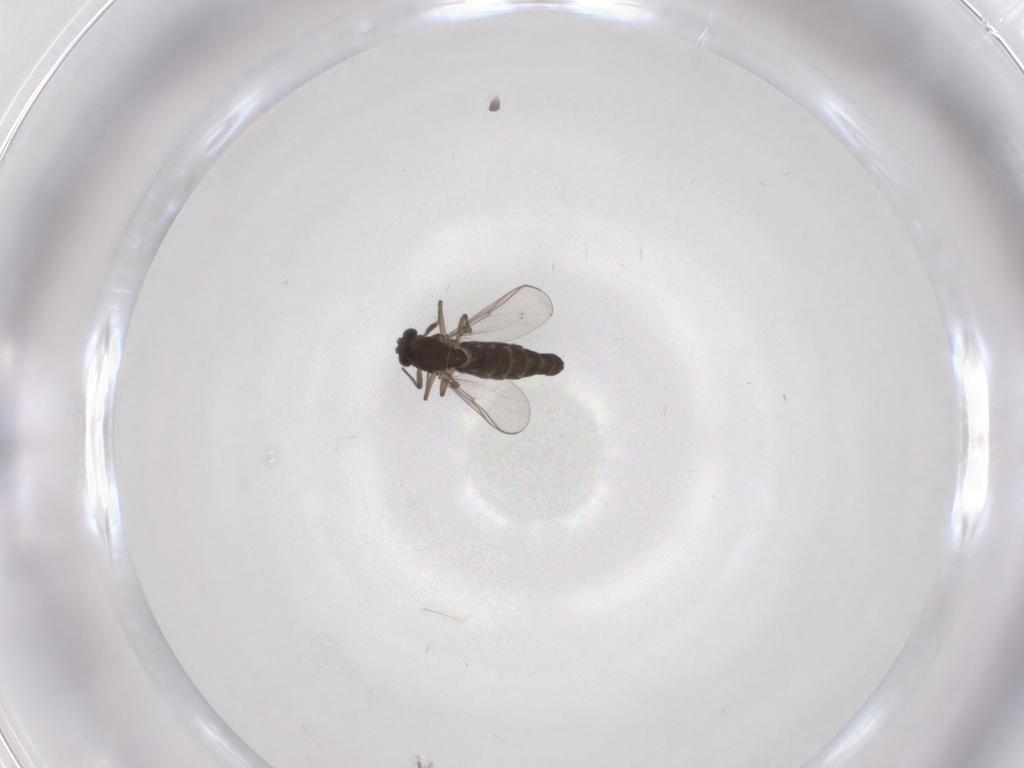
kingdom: Animalia
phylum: Arthropoda
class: Insecta
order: Diptera
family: Chironomidae
